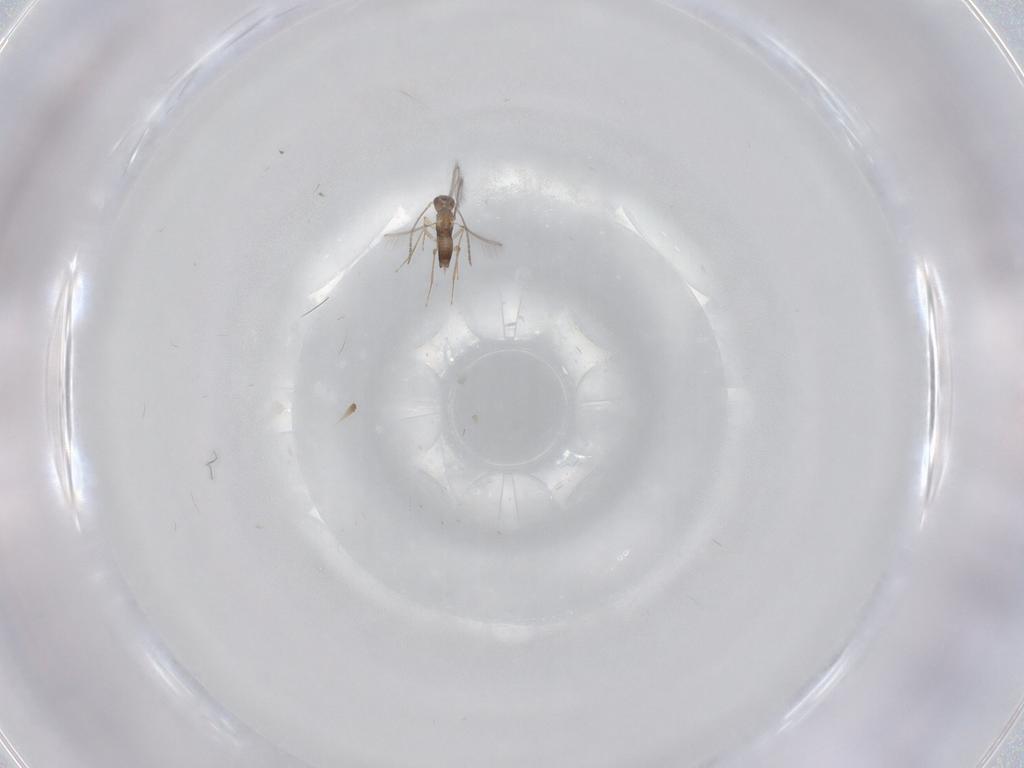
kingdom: Animalia
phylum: Arthropoda
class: Insecta
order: Hymenoptera
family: Mymaridae
